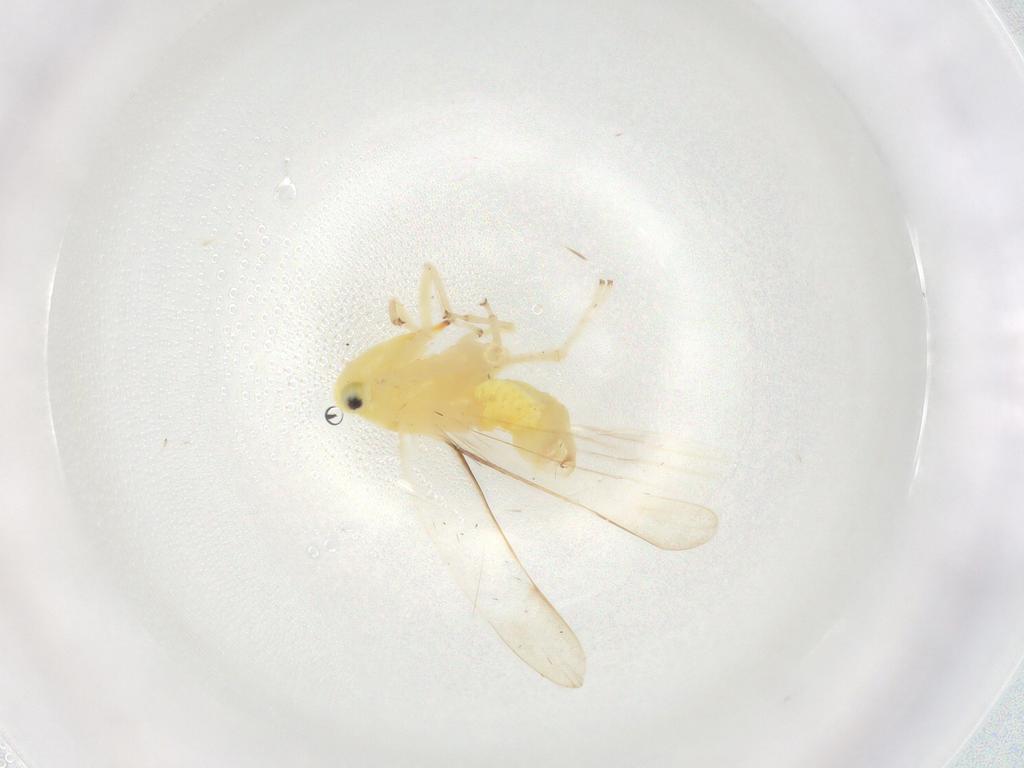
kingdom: Animalia
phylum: Arthropoda
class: Insecta
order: Hemiptera
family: Cicadellidae
